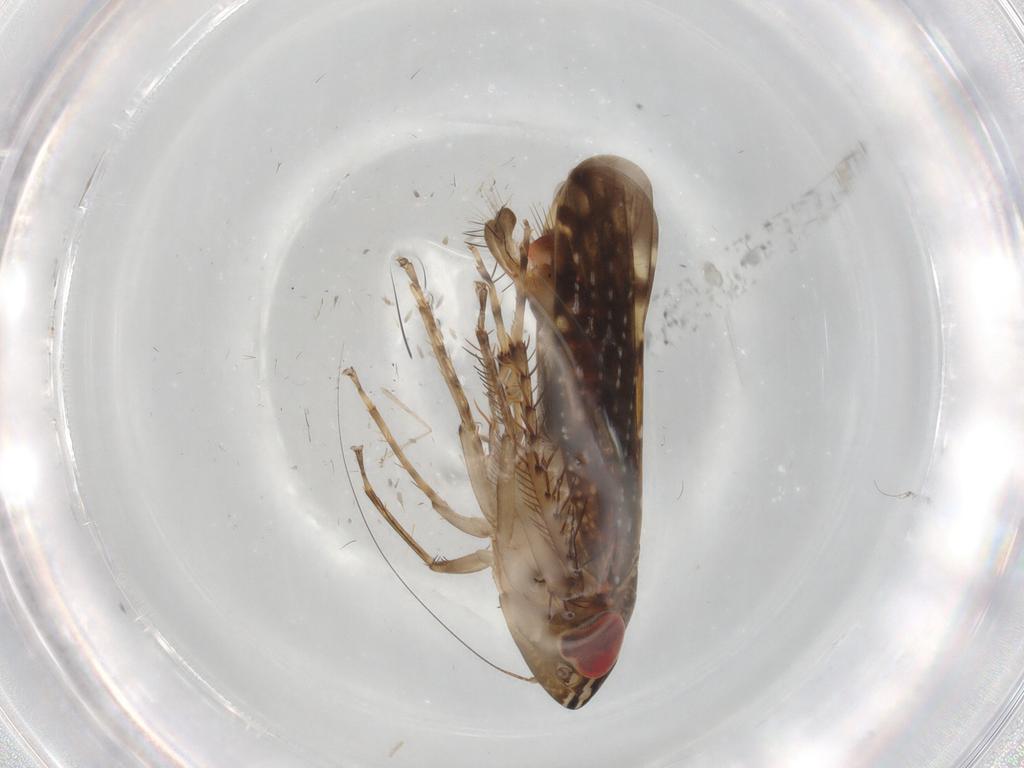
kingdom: Animalia
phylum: Arthropoda
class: Insecta
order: Hemiptera
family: Cicadellidae
